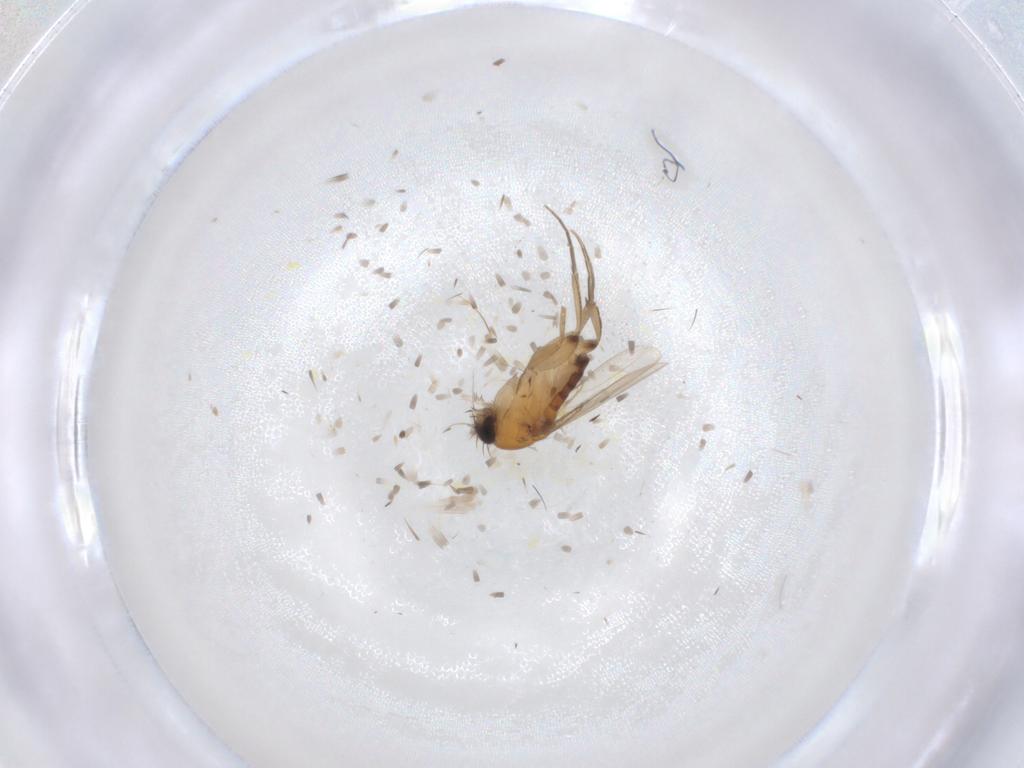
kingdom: Animalia
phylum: Arthropoda
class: Insecta
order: Diptera
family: Phoridae
